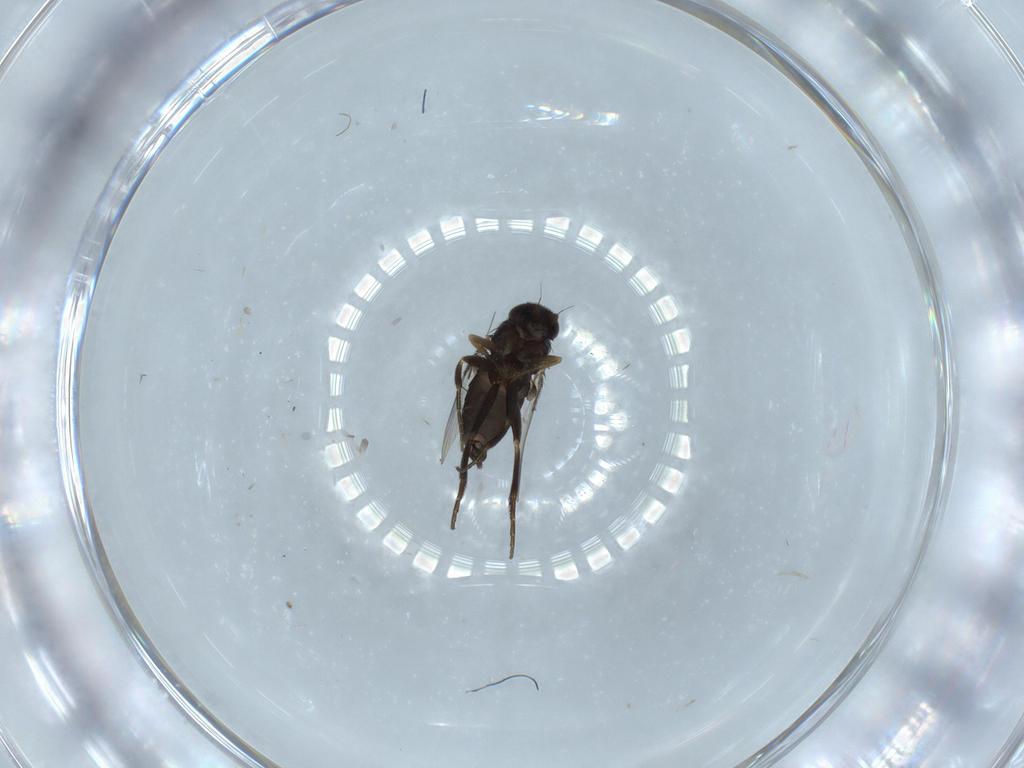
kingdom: Animalia
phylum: Arthropoda
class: Insecta
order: Diptera
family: Phoridae
